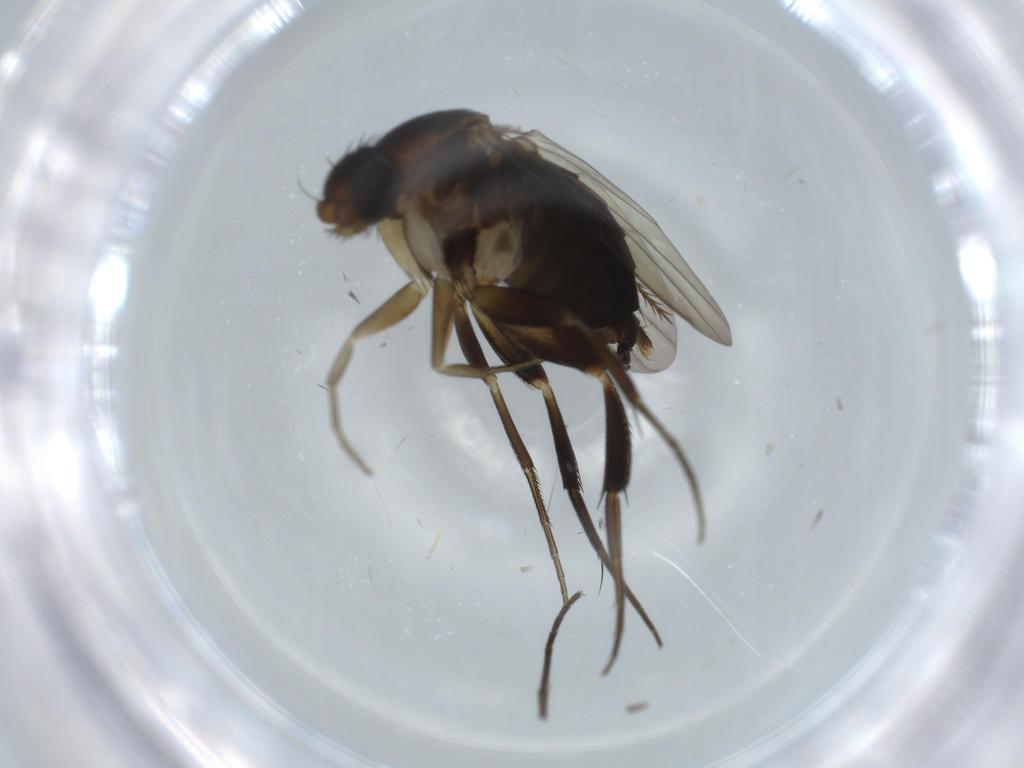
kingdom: Animalia
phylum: Arthropoda
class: Insecta
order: Diptera
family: Phoridae
